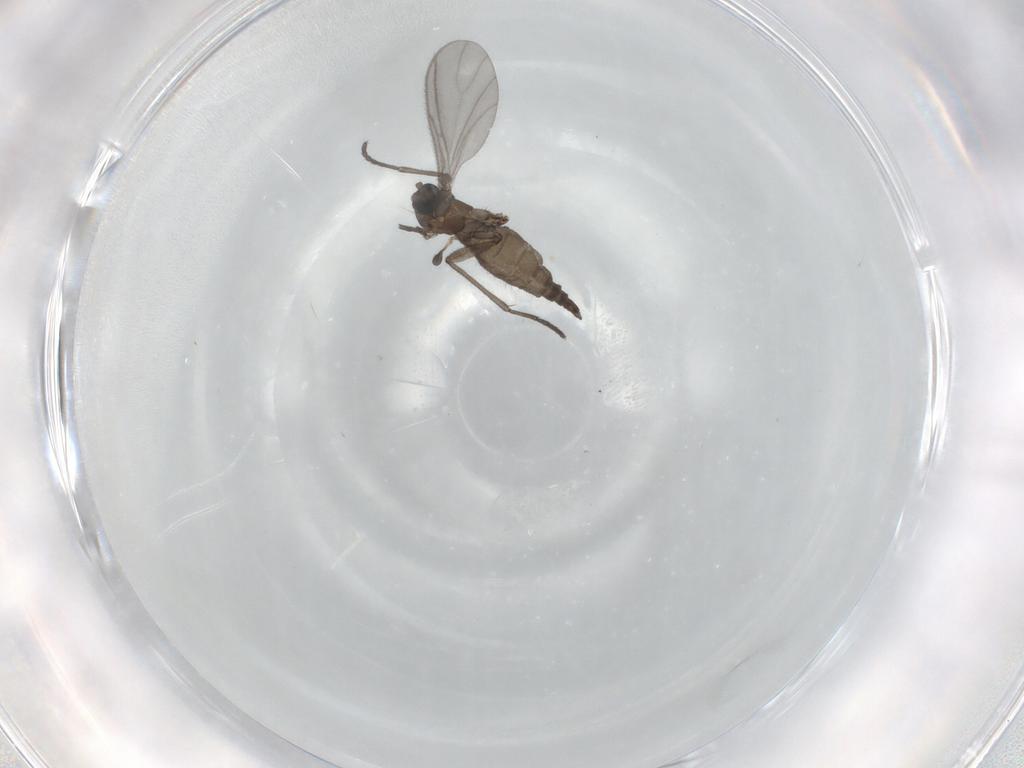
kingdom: Animalia
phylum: Arthropoda
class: Insecta
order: Diptera
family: Sciaridae
